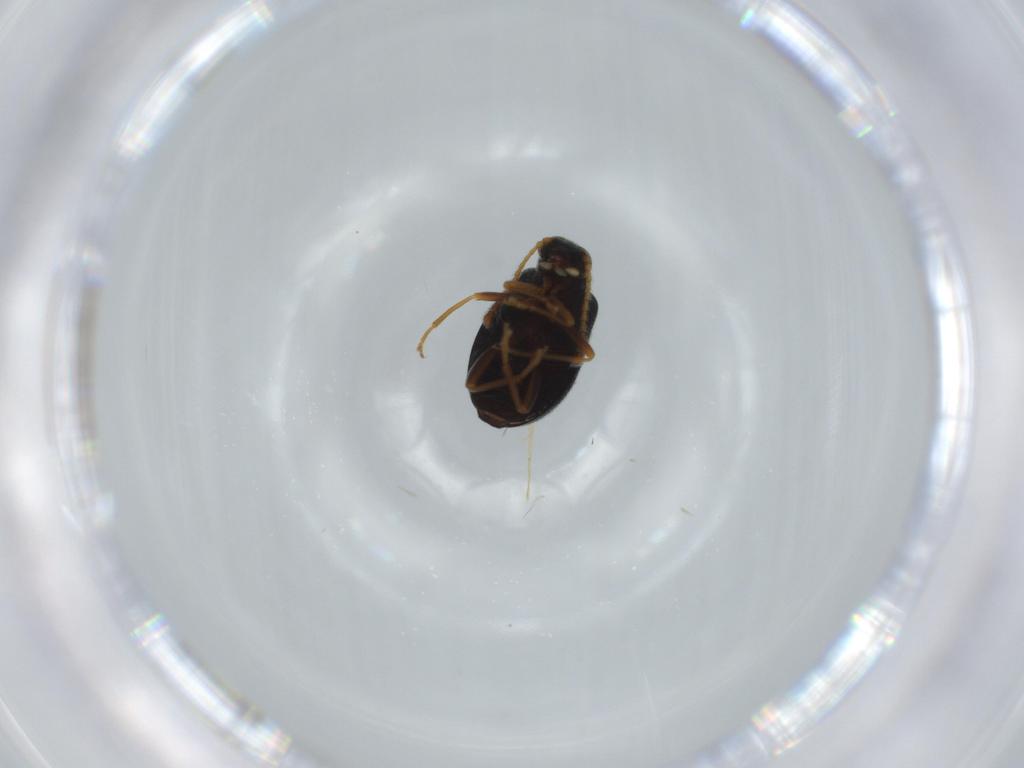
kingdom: Animalia
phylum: Arthropoda
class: Insecta
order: Coleoptera
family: Aderidae
